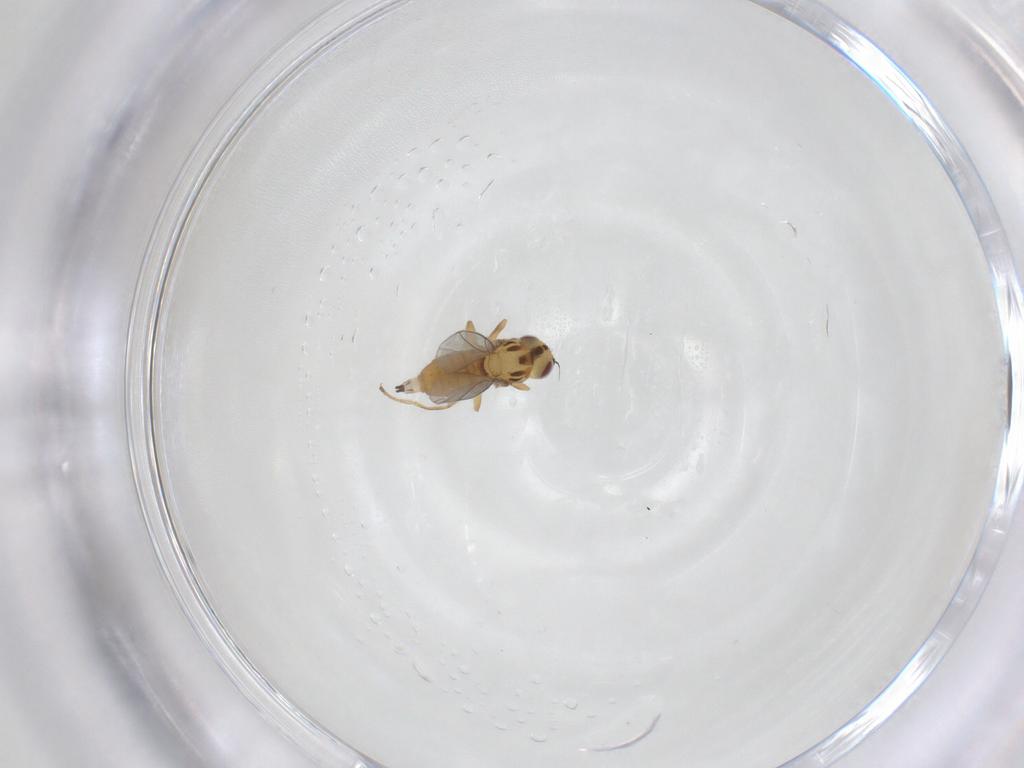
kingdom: Animalia
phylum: Arthropoda
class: Insecta
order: Diptera
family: Chloropidae
